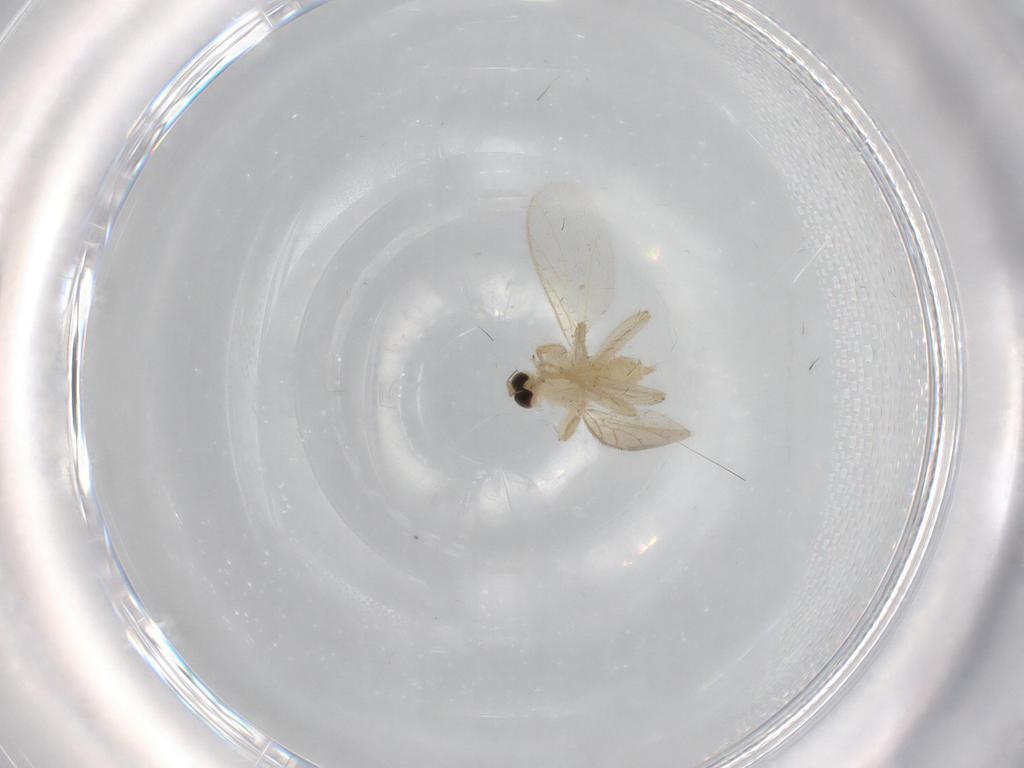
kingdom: Animalia
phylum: Arthropoda
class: Insecta
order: Diptera
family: Hybotidae
